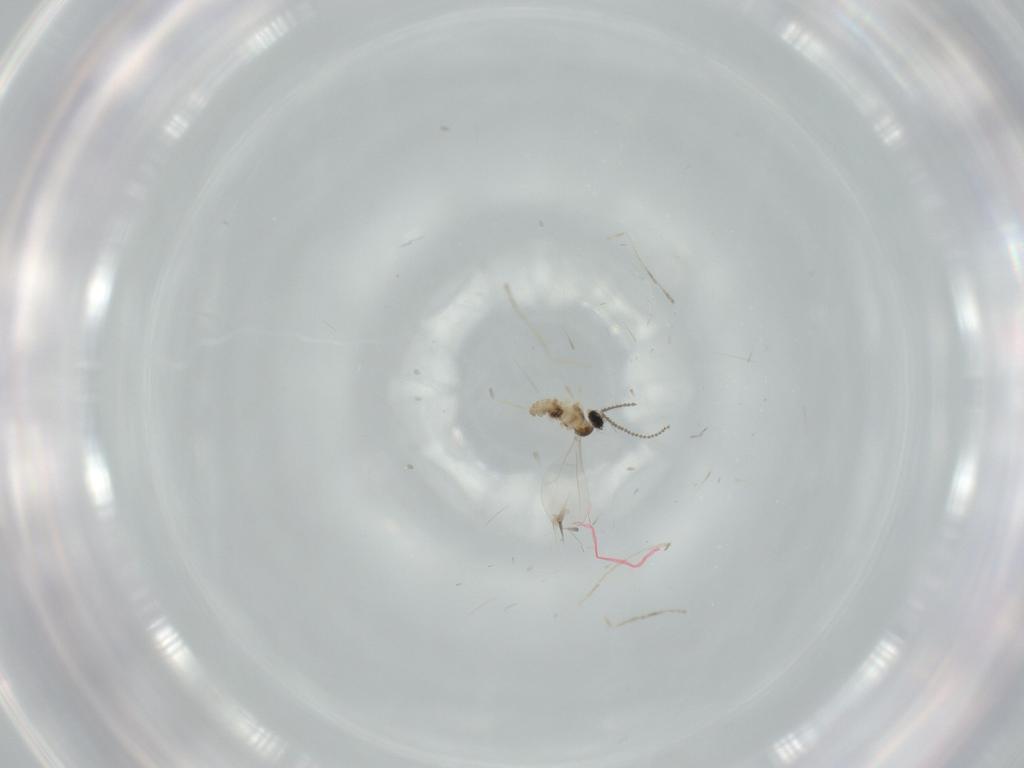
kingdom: Animalia
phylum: Arthropoda
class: Insecta
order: Diptera
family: Cecidomyiidae
